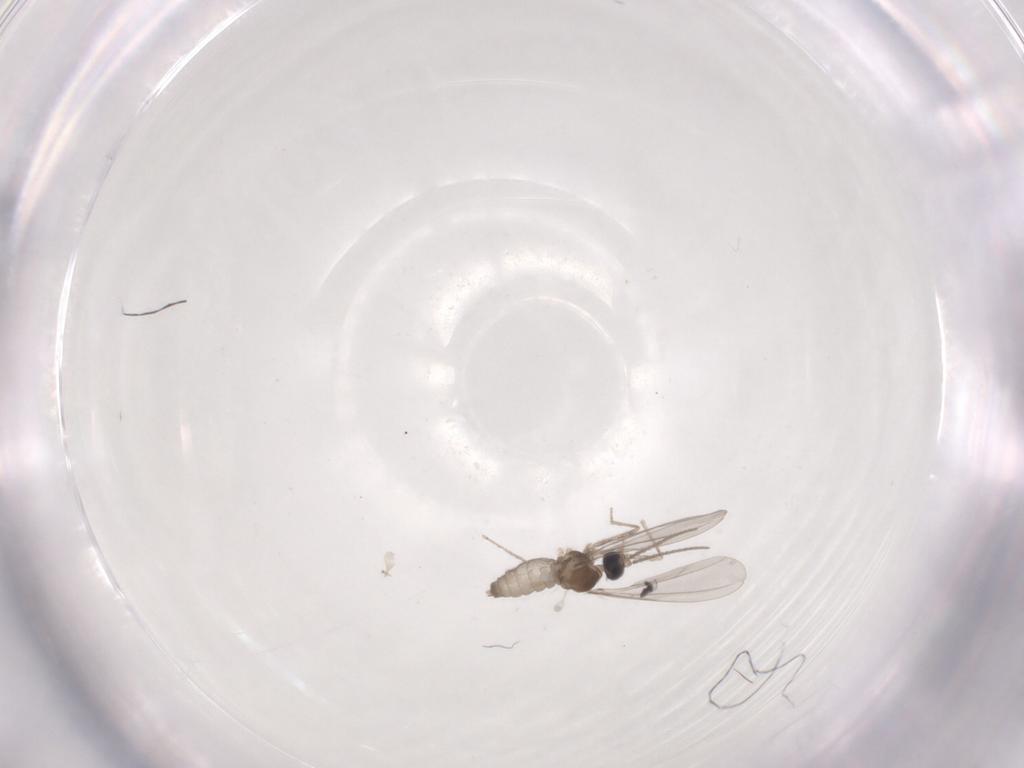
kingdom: Animalia
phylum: Arthropoda
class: Insecta
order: Diptera
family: Cecidomyiidae
